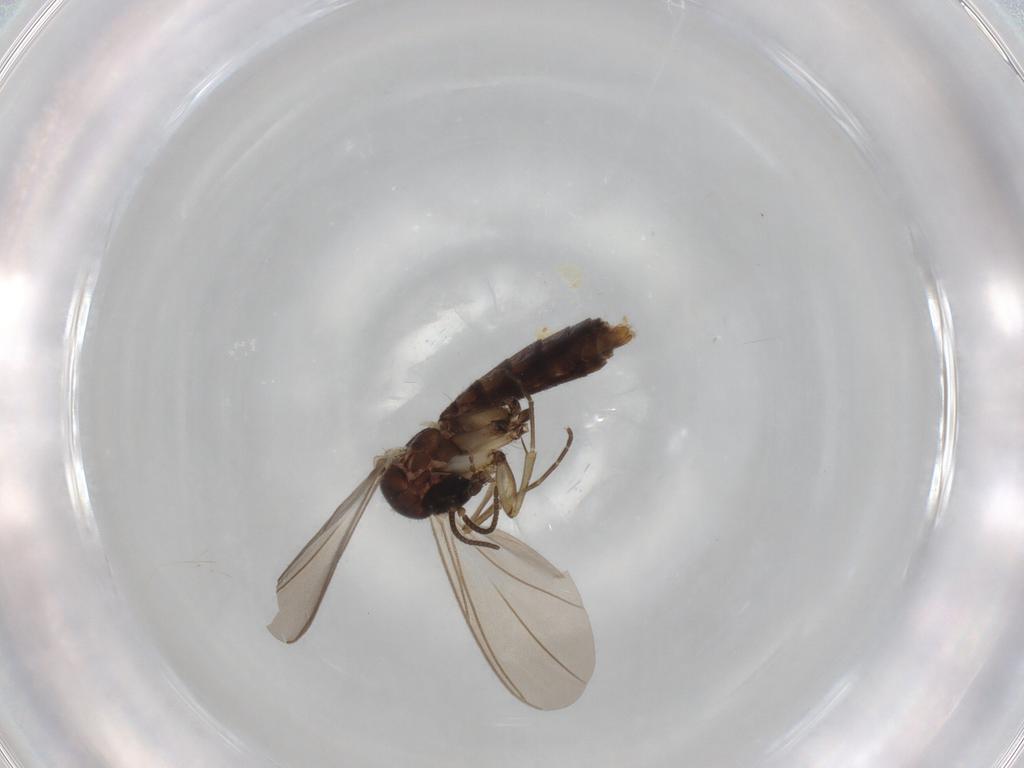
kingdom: Animalia
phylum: Arthropoda
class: Insecta
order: Diptera
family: Mycetophilidae
